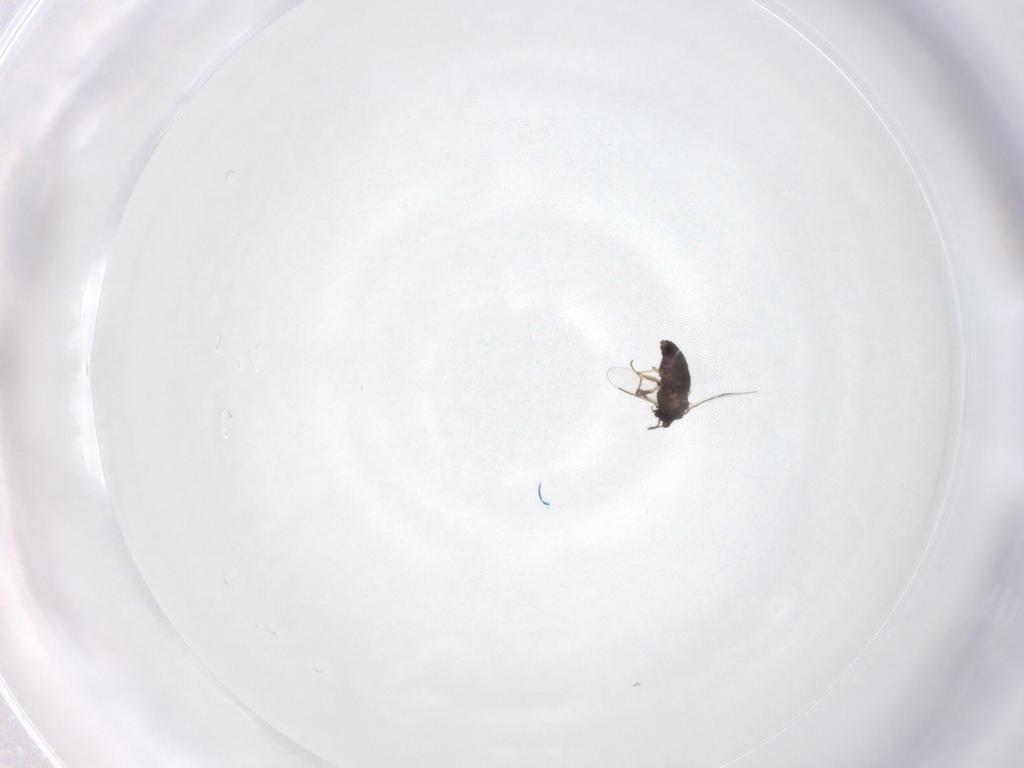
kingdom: Animalia
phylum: Arthropoda
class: Insecta
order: Diptera
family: Chironomidae
